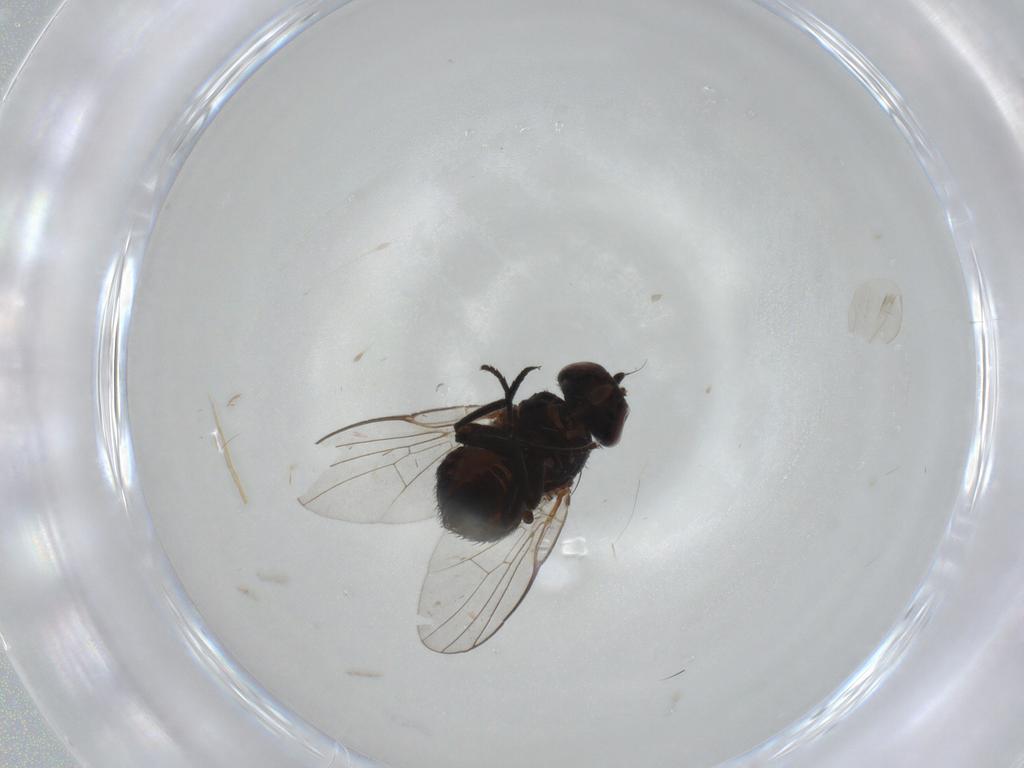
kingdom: Animalia
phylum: Arthropoda
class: Insecta
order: Diptera
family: Agromyzidae
